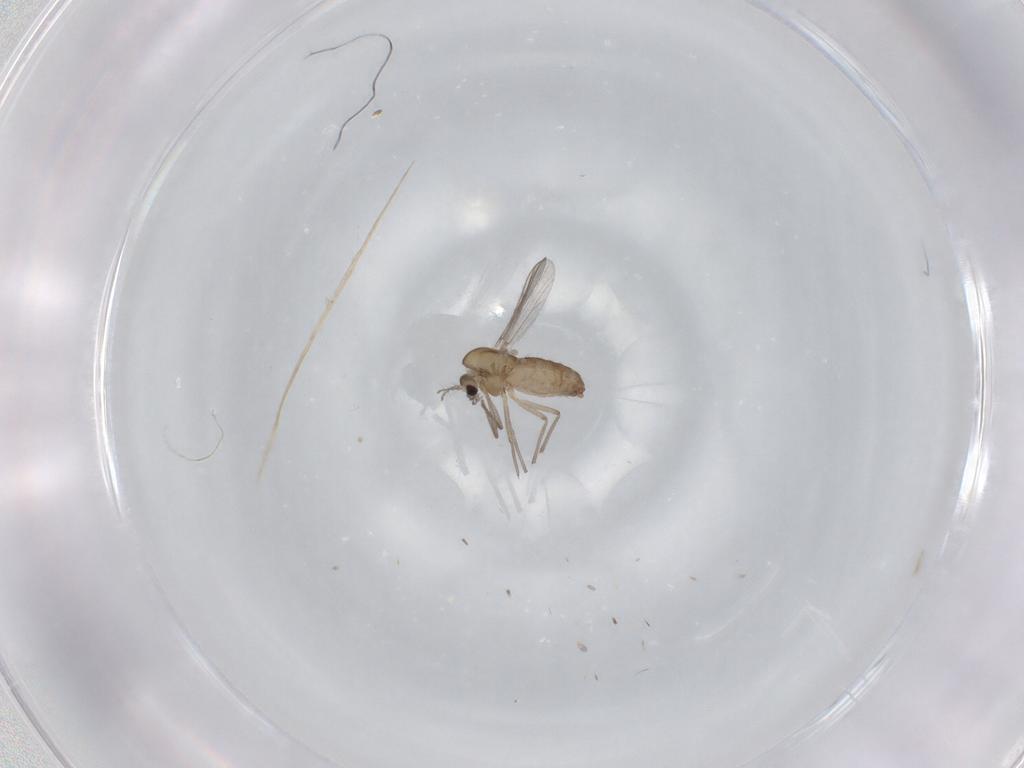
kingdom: Animalia
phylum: Arthropoda
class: Insecta
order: Diptera
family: Chironomidae
